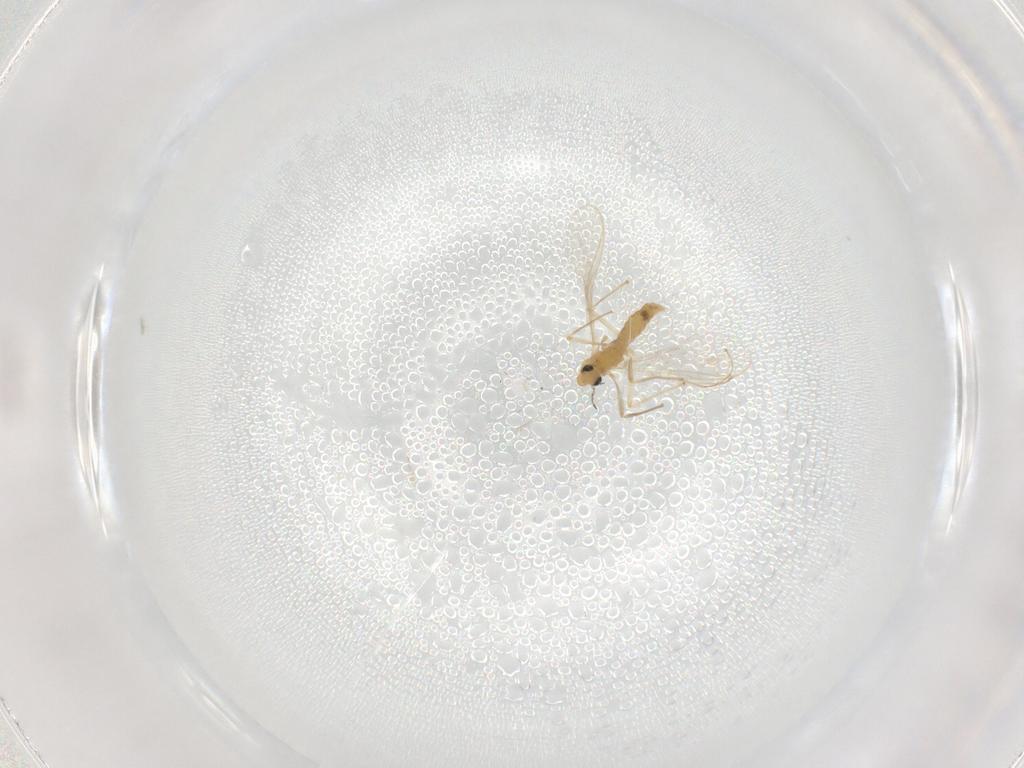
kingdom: Animalia
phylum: Arthropoda
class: Insecta
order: Diptera
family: Chironomidae
